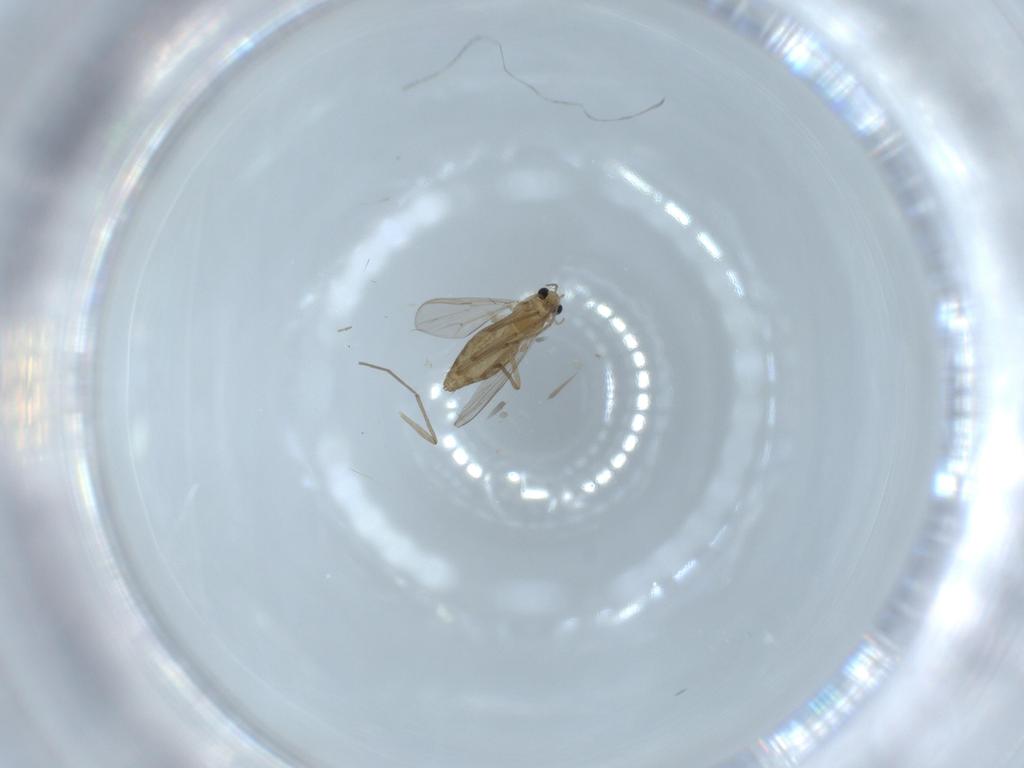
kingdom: Animalia
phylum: Arthropoda
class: Insecta
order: Diptera
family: Chironomidae
